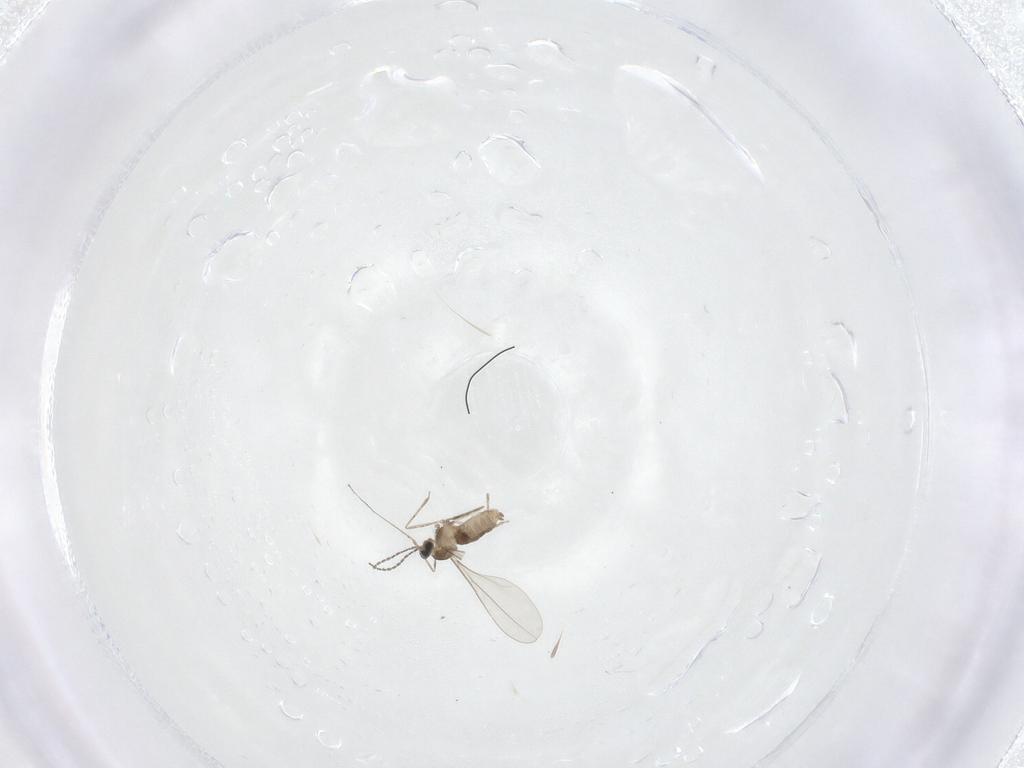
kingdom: Animalia
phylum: Arthropoda
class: Insecta
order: Diptera
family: Cecidomyiidae
